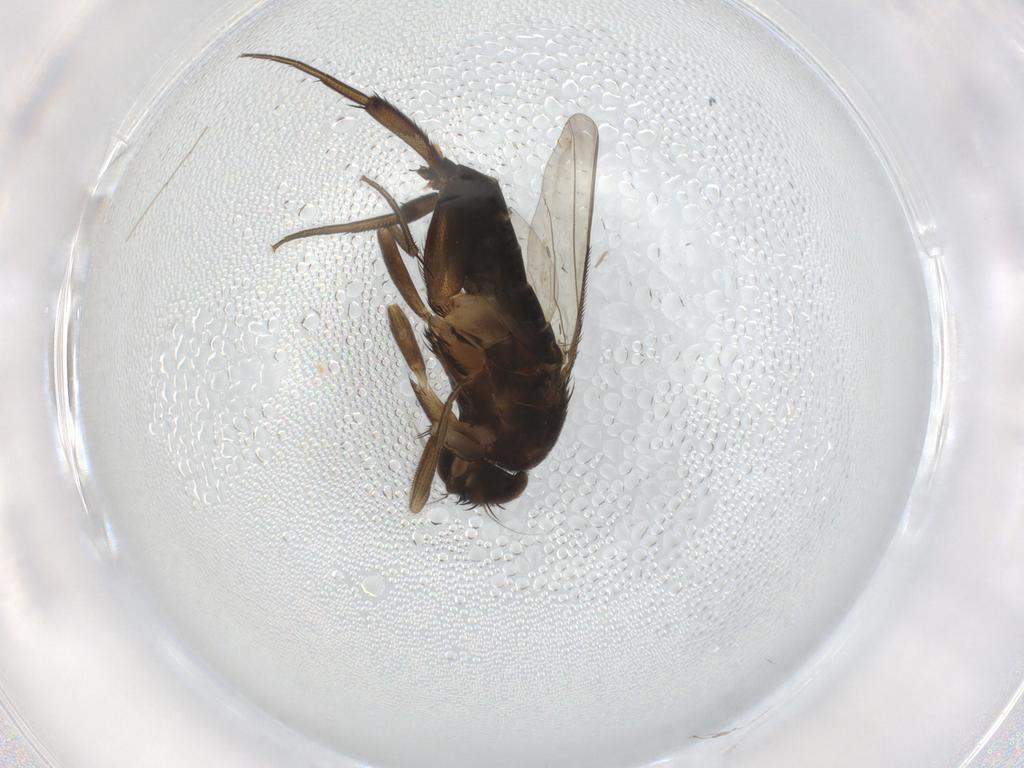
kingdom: Animalia
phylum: Arthropoda
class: Insecta
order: Diptera
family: Phoridae
